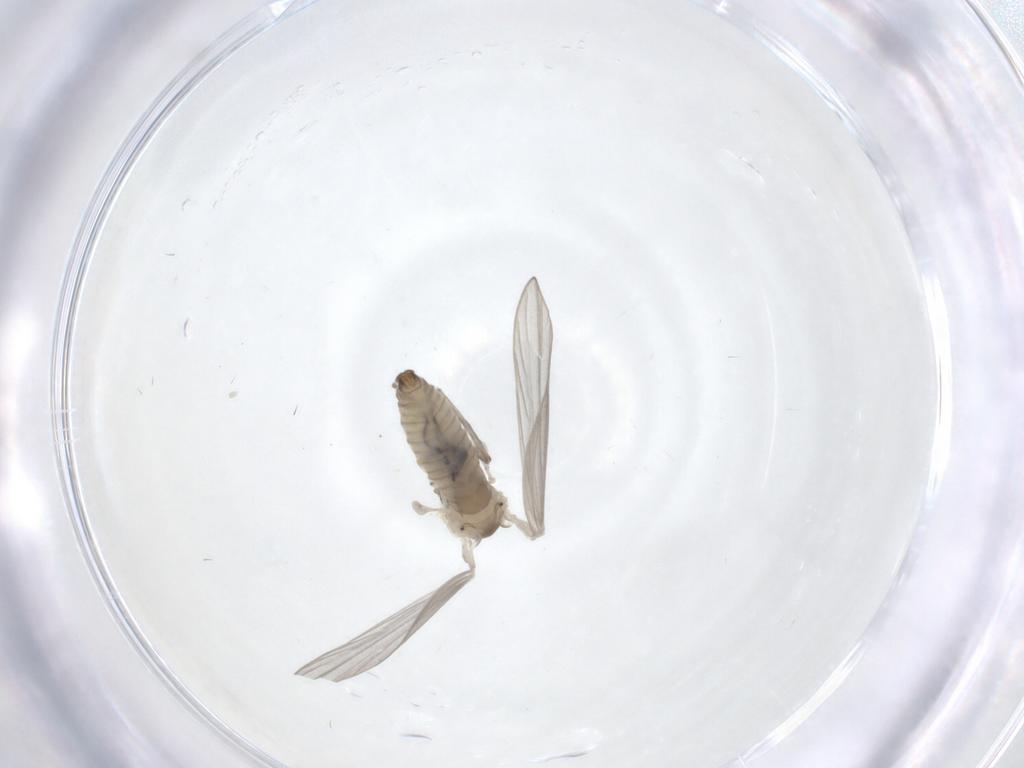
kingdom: Animalia
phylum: Arthropoda
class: Insecta
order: Diptera
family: Psychodidae
